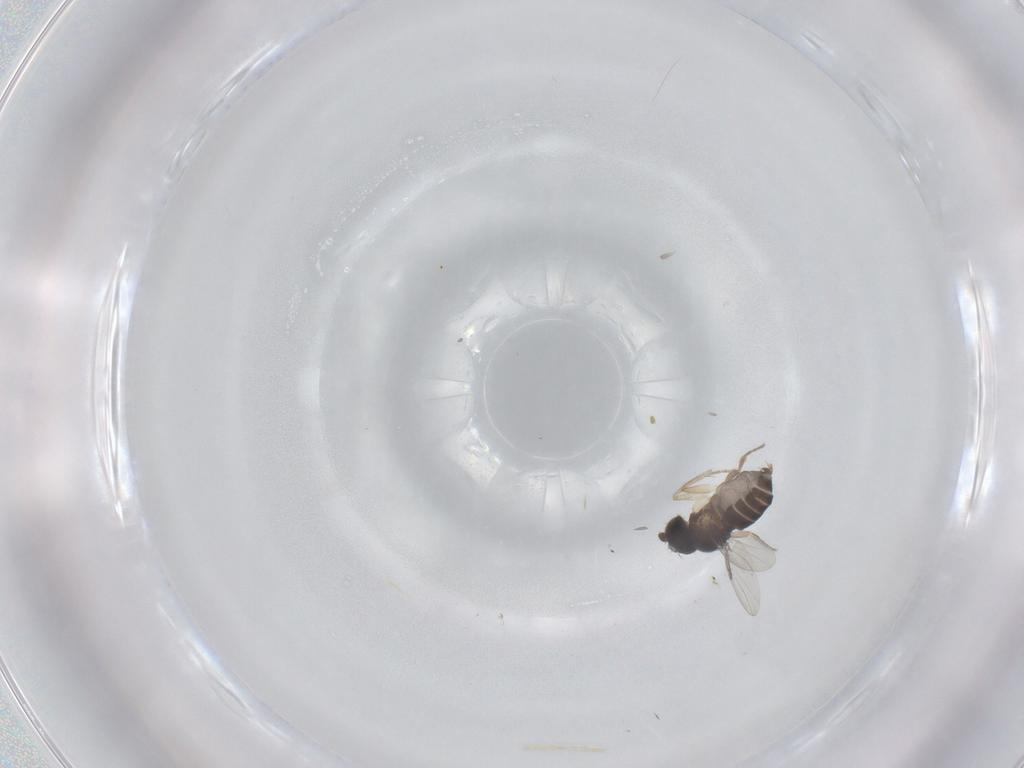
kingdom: Animalia
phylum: Arthropoda
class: Insecta
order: Diptera
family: Phoridae
